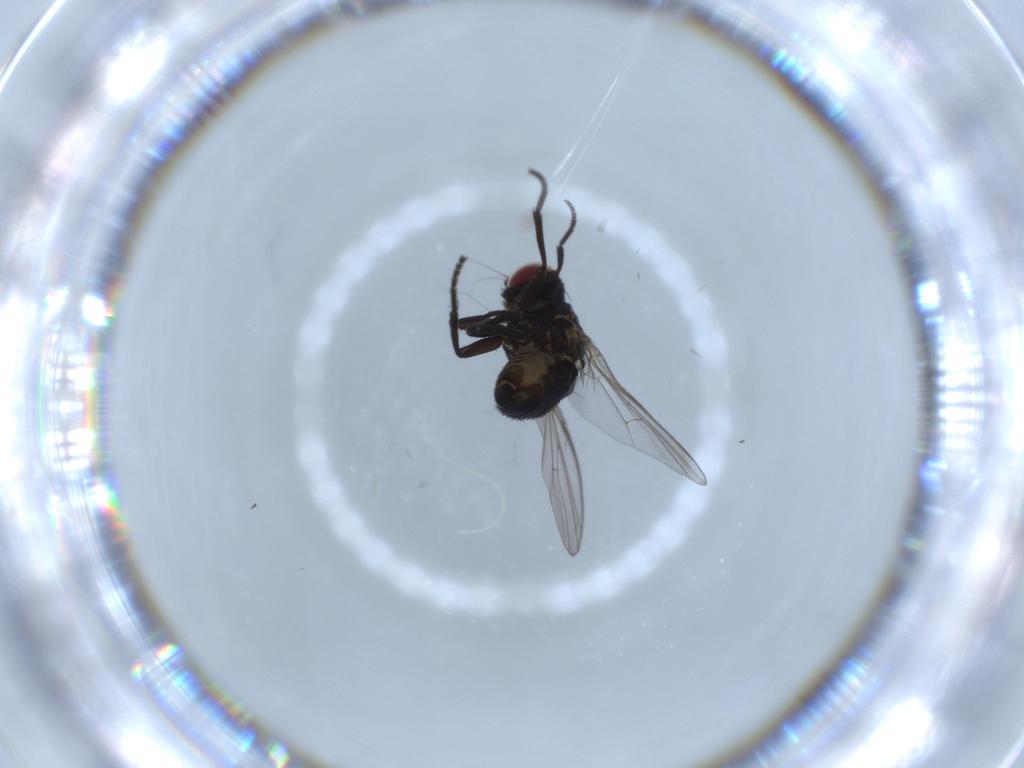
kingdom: Animalia
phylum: Arthropoda
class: Insecta
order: Diptera
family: Agromyzidae
